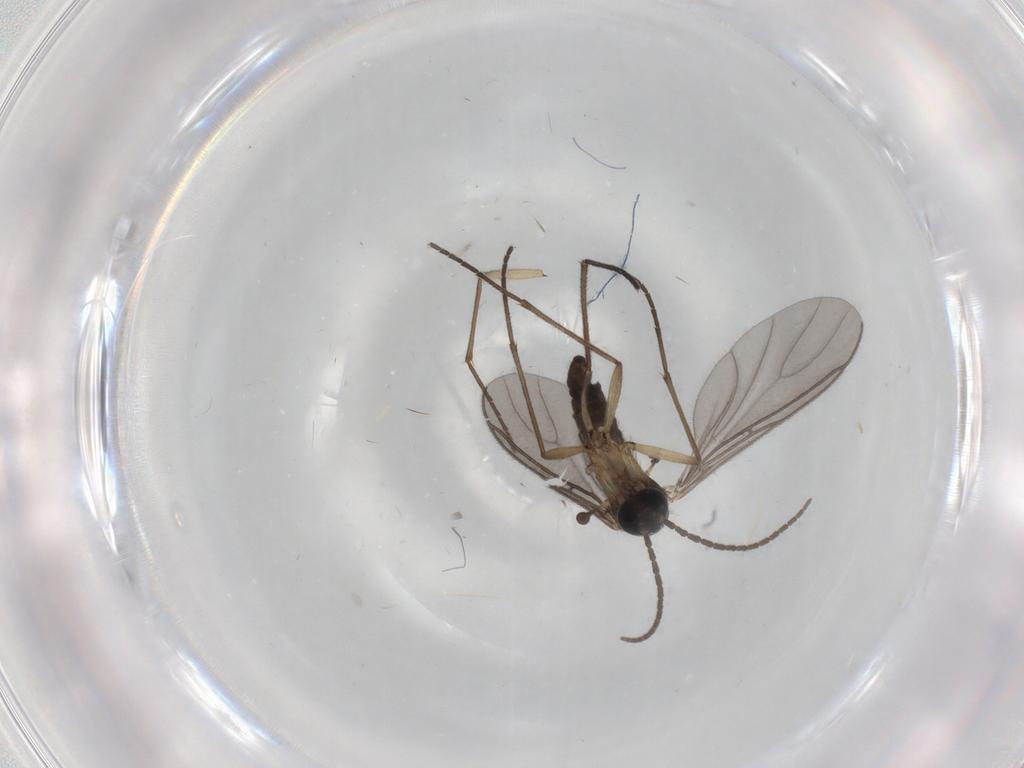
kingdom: Animalia
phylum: Arthropoda
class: Insecta
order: Diptera
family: Sciaridae
